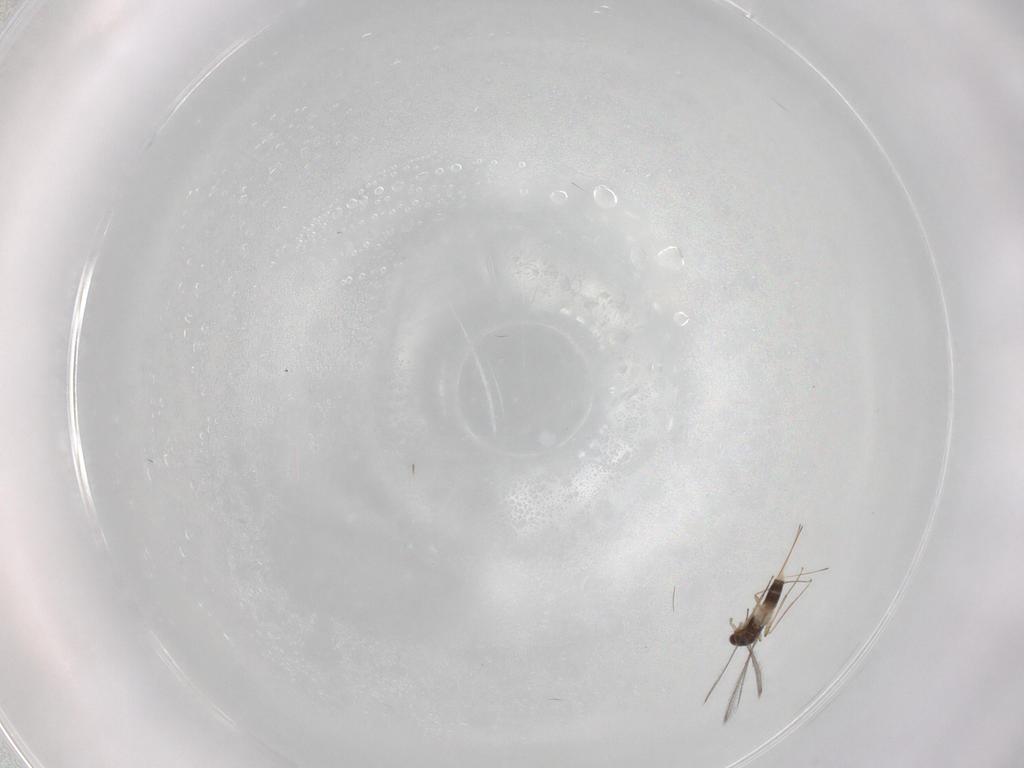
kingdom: Animalia
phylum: Arthropoda
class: Insecta
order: Hymenoptera
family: Mymaridae
